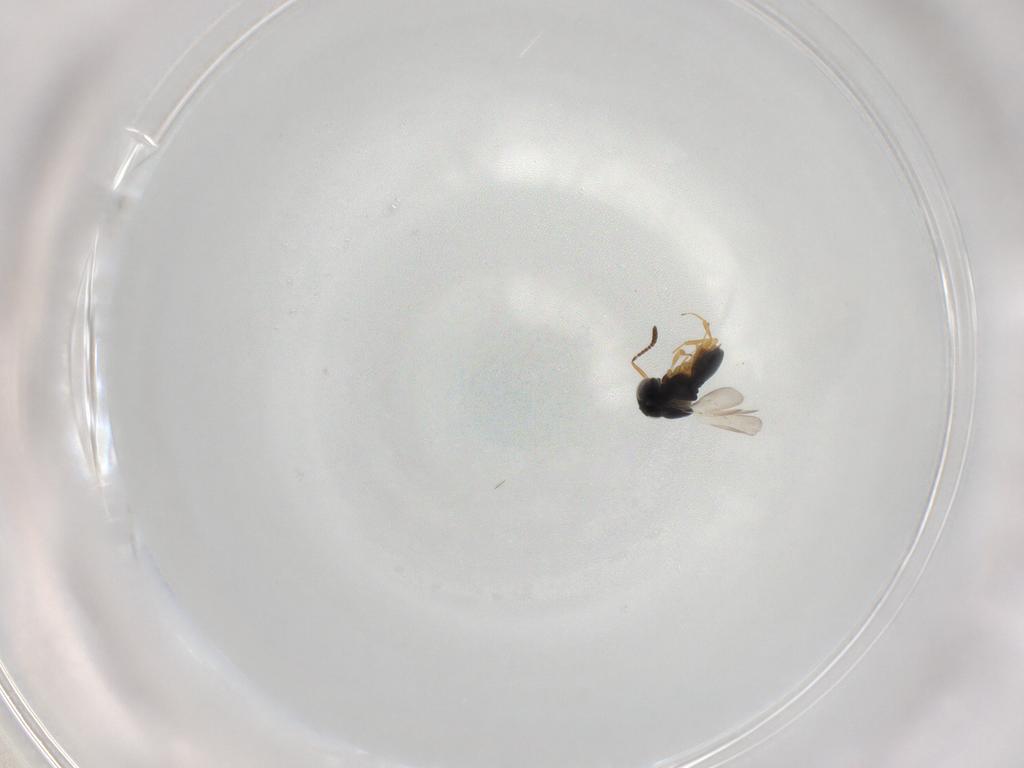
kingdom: Animalia
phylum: Arthropoda
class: Insecta
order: Hymenoptera
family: Scelionidae
